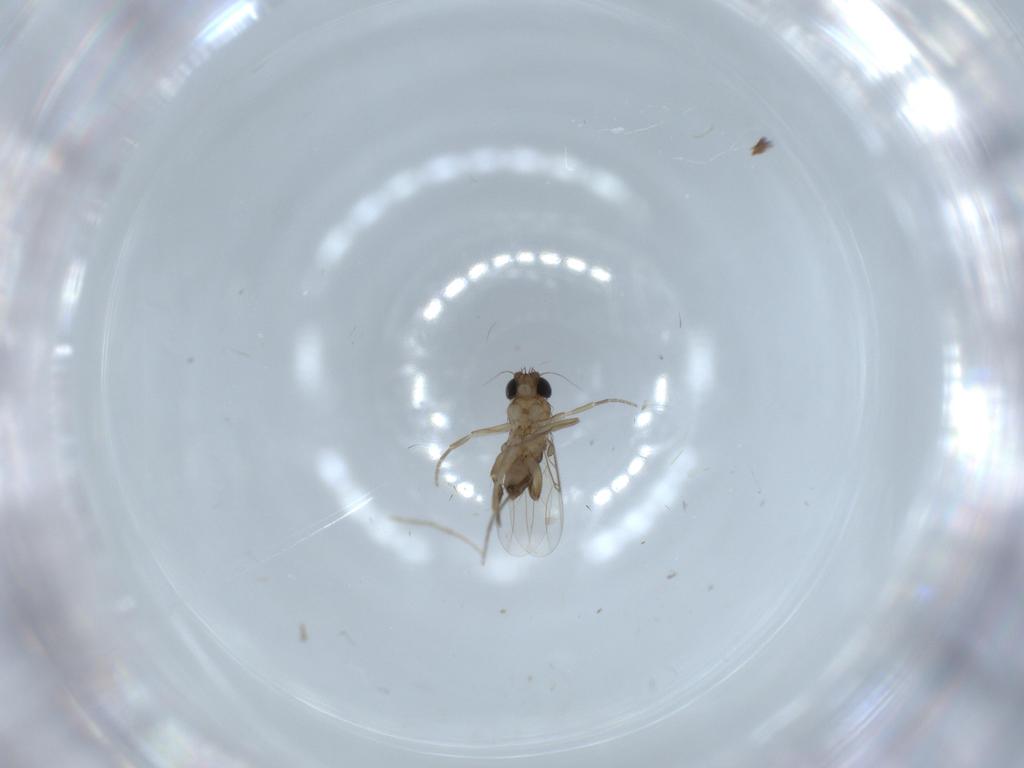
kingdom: Animalia
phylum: Arthropoda
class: Insecta
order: Diptera
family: Phoridae
